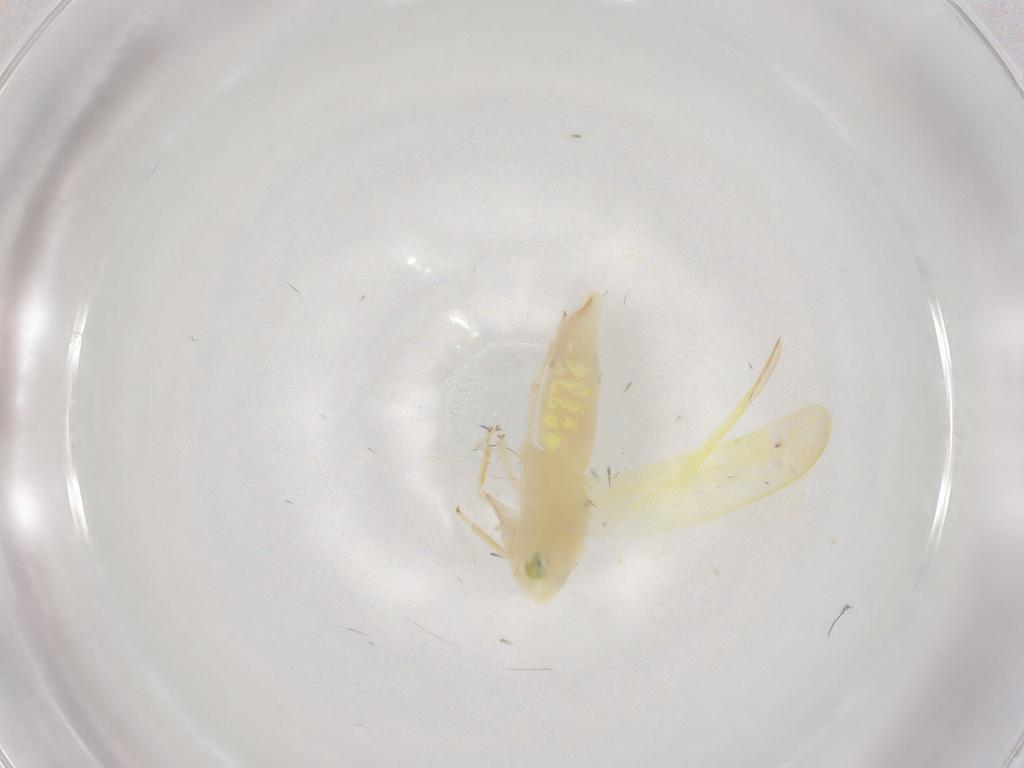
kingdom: Animalia
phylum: Arthropoda
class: Insecta
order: Hemiptera
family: Cicadellidae
